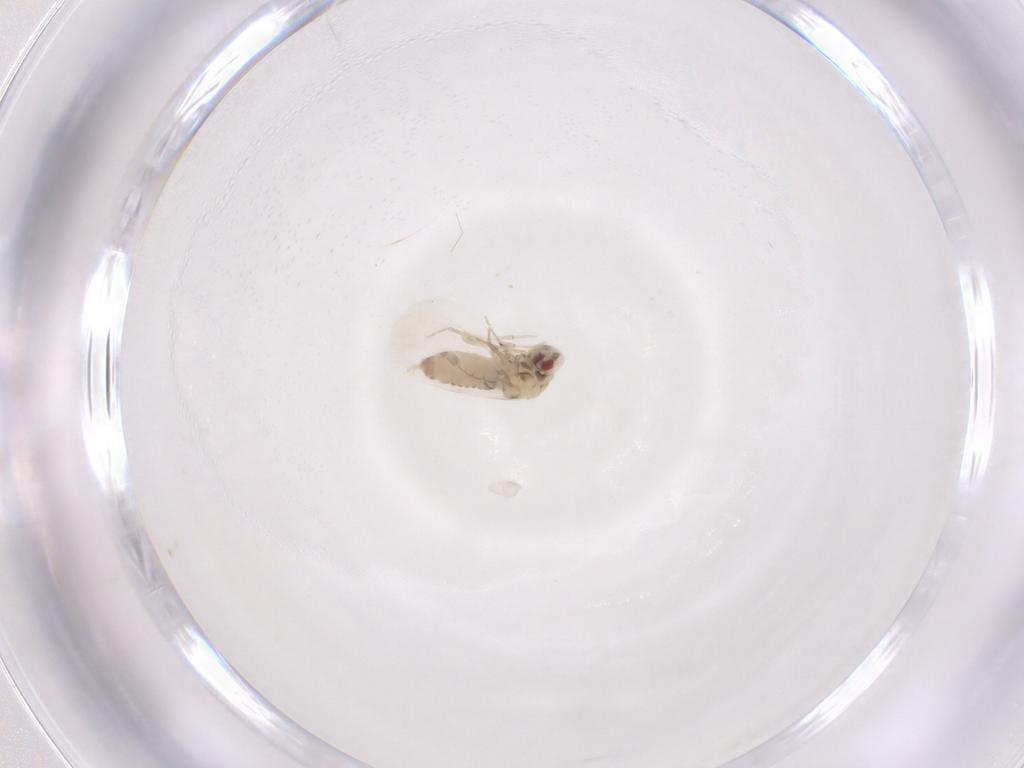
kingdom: Animalia
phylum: Arthropoda
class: Insecta
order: Hemiptera
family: Aleyrodidae
